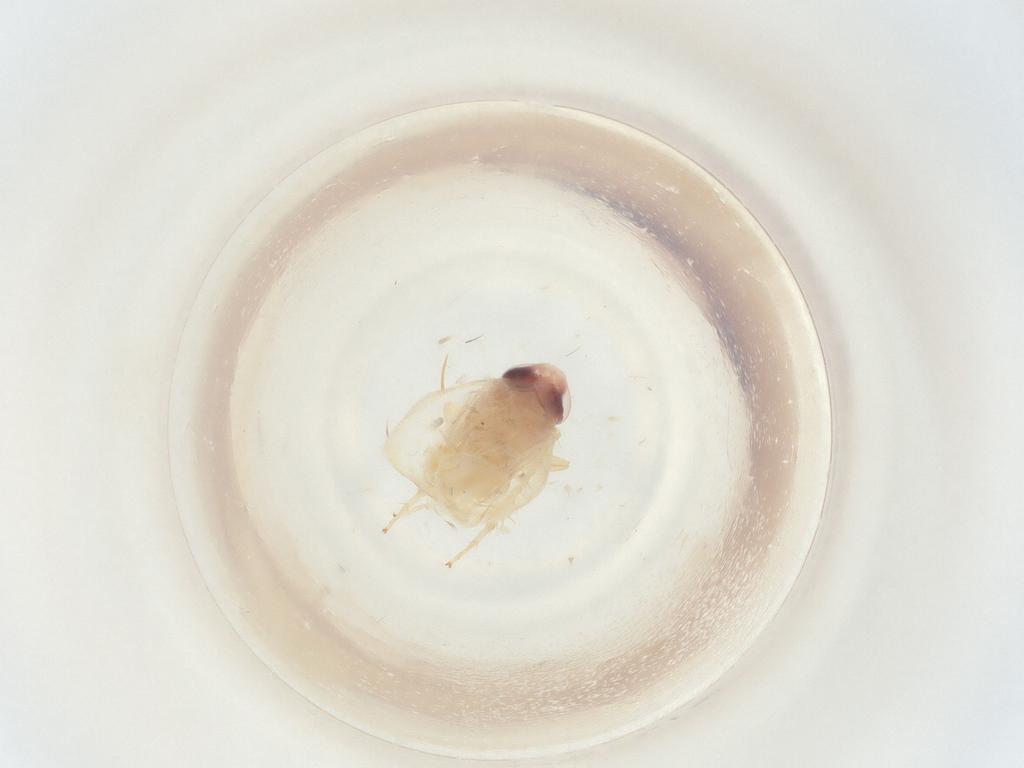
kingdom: Animalia
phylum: Arthropoda
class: Insecta
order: Hemiptera
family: Cicadellidae
